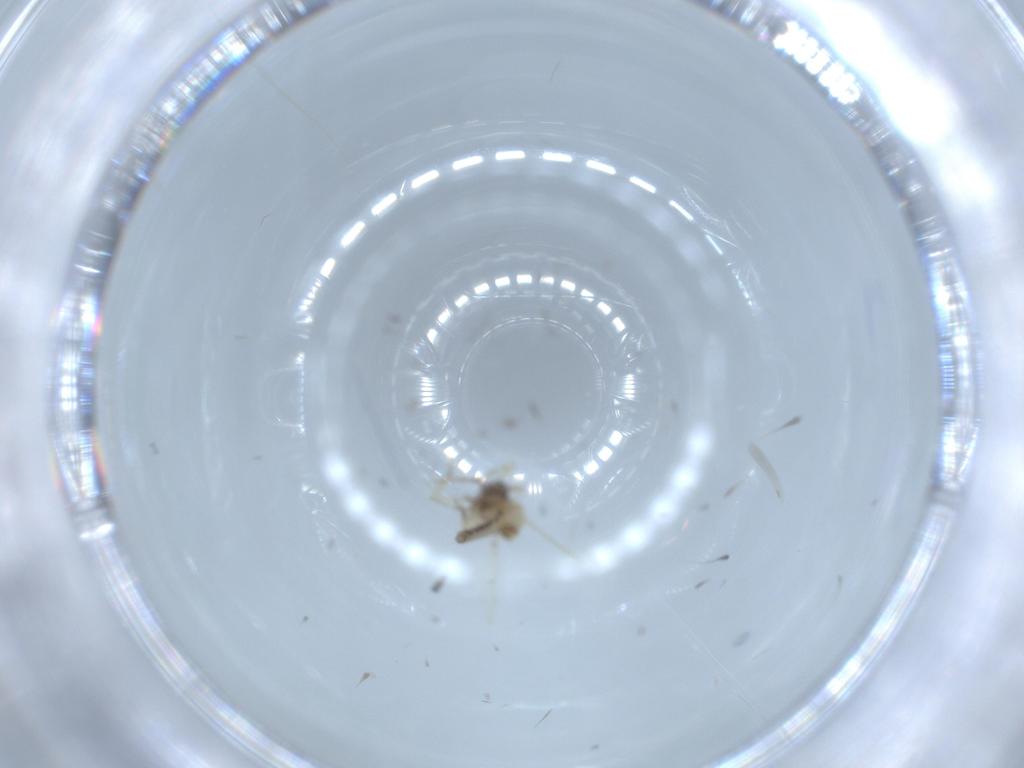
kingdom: Animalia
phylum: Arthropoda
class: Insecta
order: Diptera
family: Ceratopogonidae
